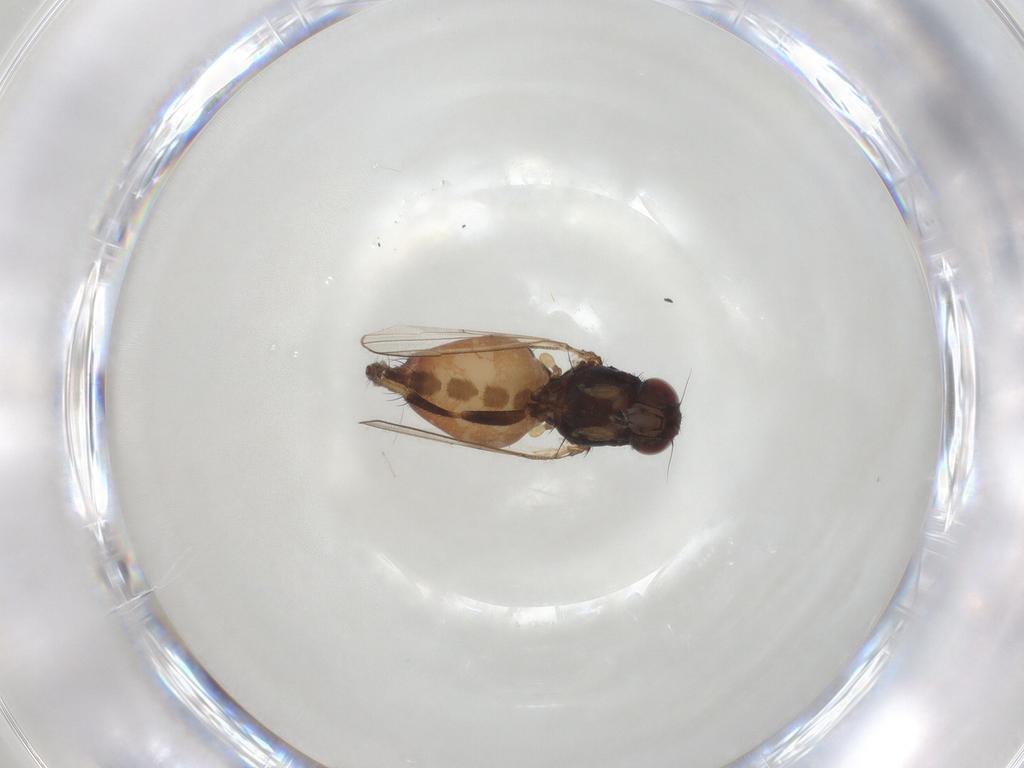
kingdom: Animalia
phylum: Arthropoda
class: Insecta
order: Diptera
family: Milichiidae
